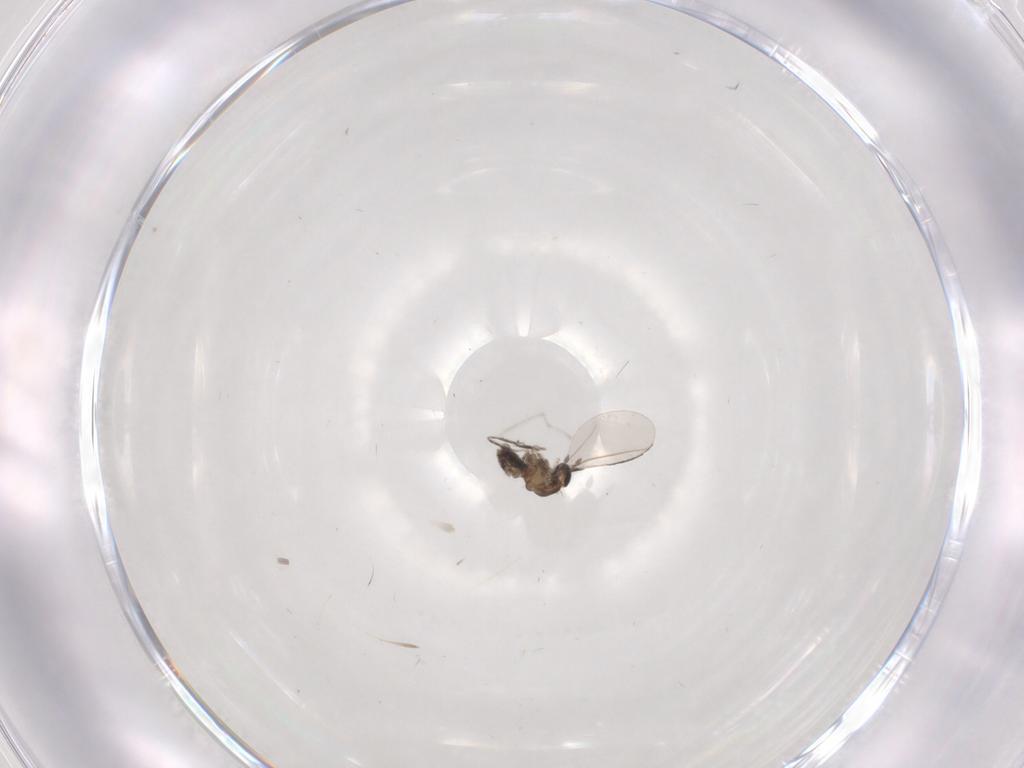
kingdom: Animalia
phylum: Arthropoda
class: Insecta
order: Diptera
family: Cecidomyiidae
